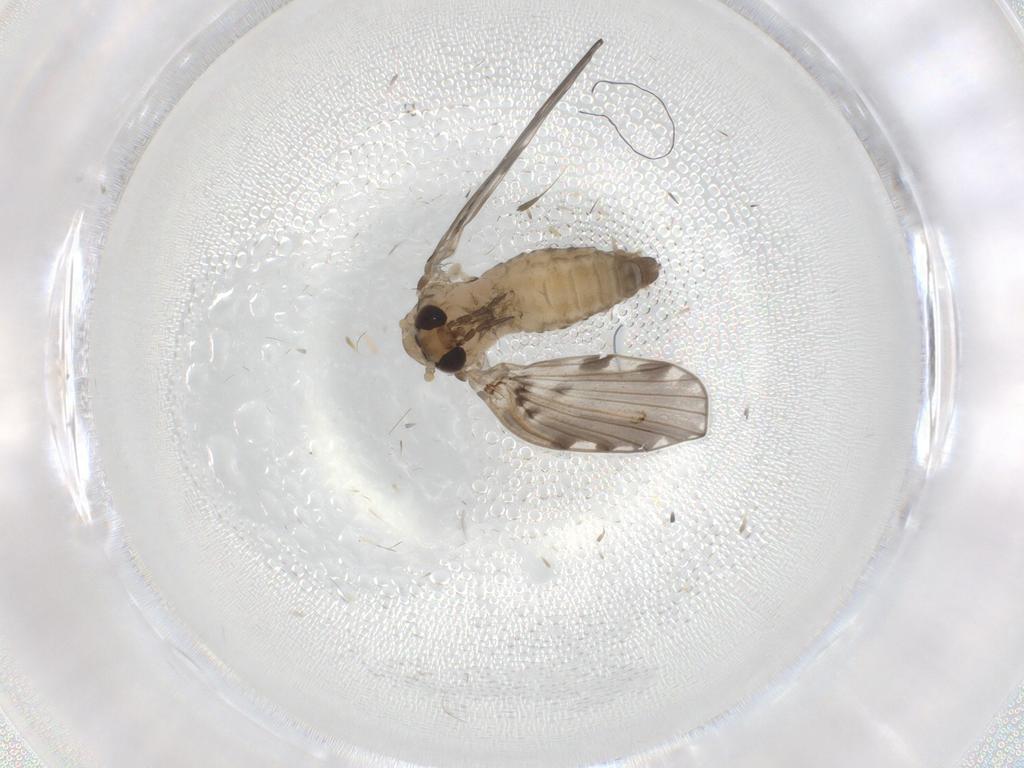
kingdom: Animalia
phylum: Arthropoda
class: Insecta
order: Diptera
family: Psychodidae
